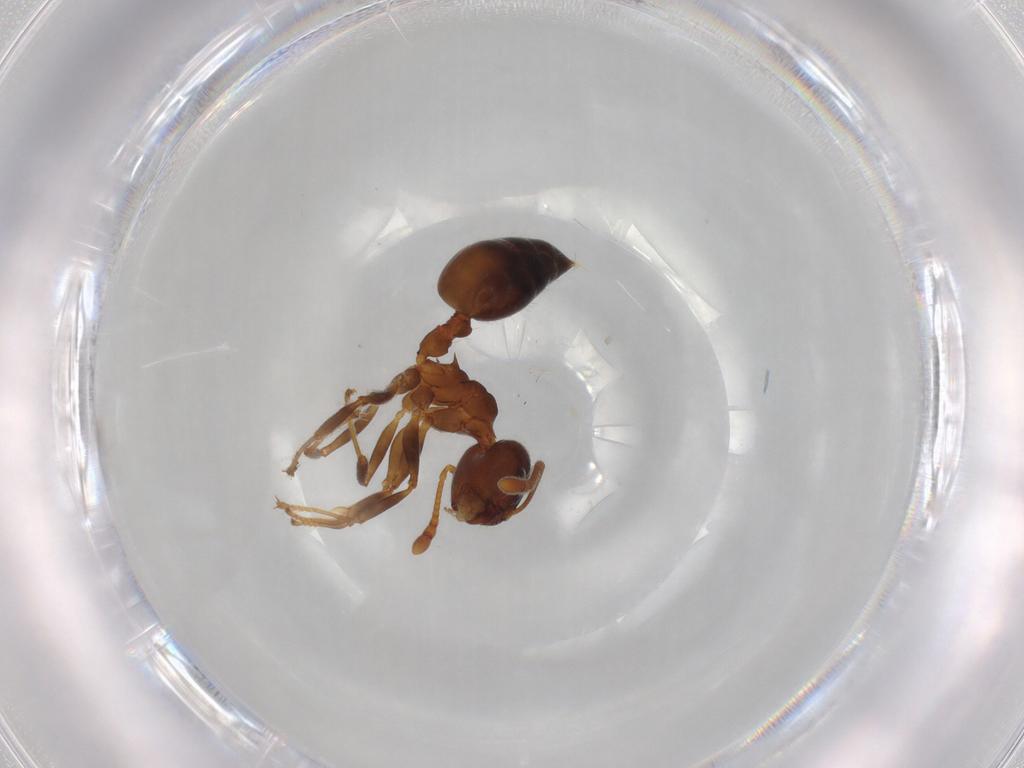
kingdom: Animalia
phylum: Arthropoda
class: Insecta
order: Hymenoptera
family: Formicidae
